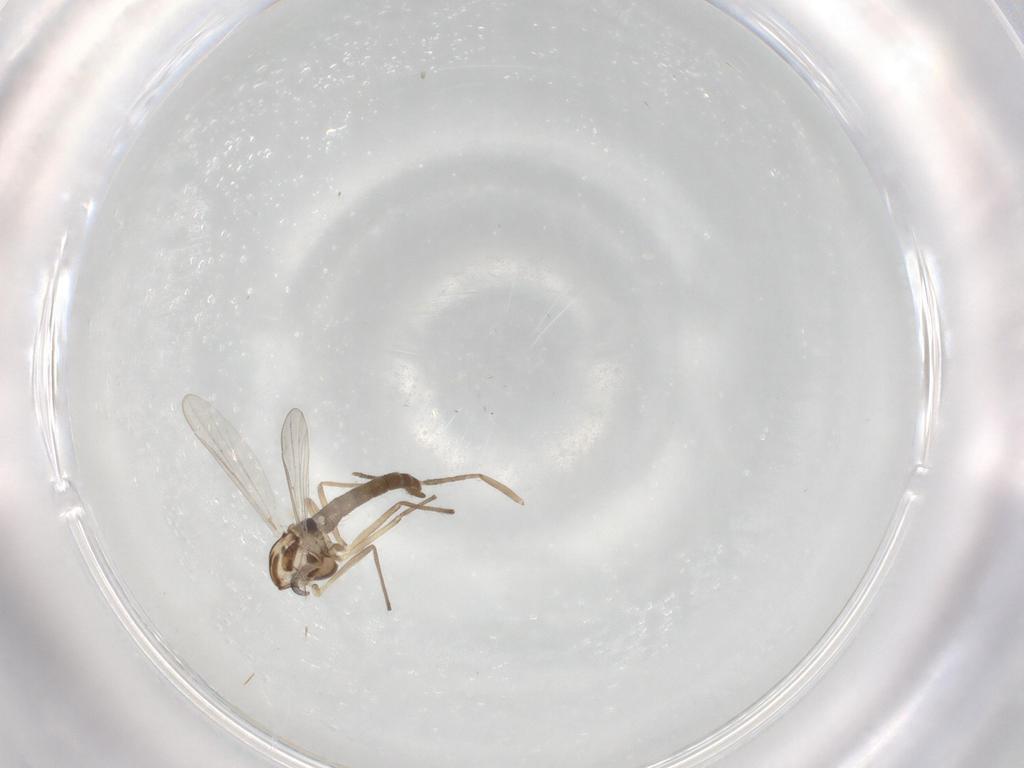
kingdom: Animalia
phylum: Arthropoda
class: Insecta
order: Diptera
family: Chironomidae
